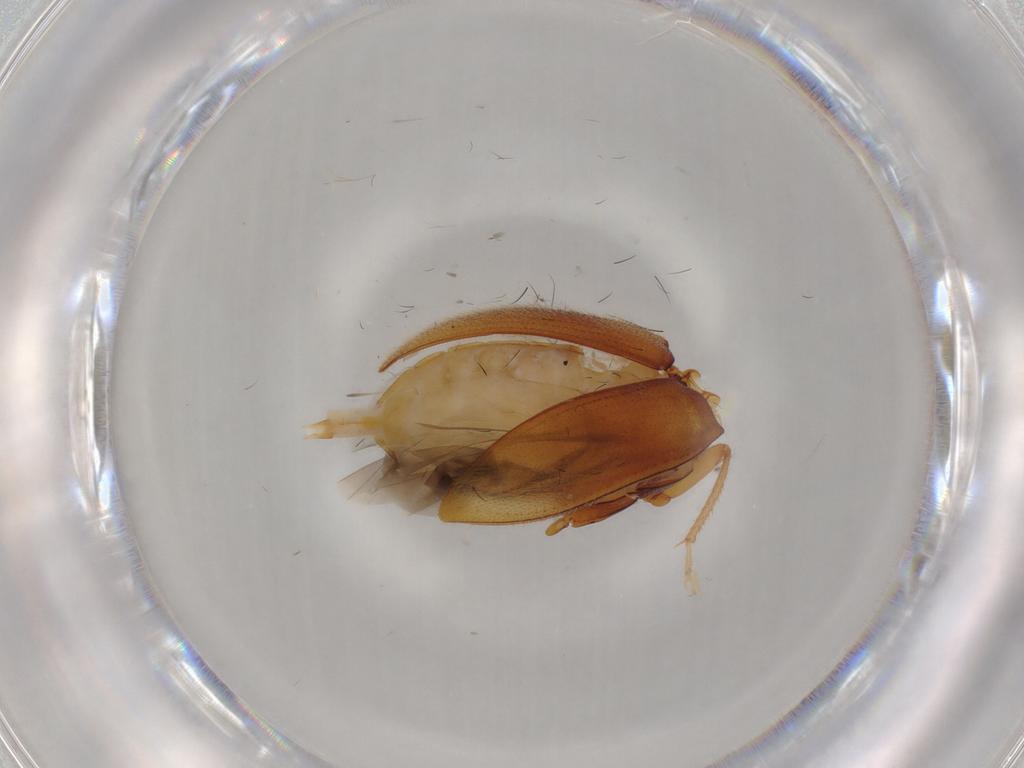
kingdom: Animalia
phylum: Arthropoda
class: Insecta
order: Coleoptera
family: Ptilodactylidae
